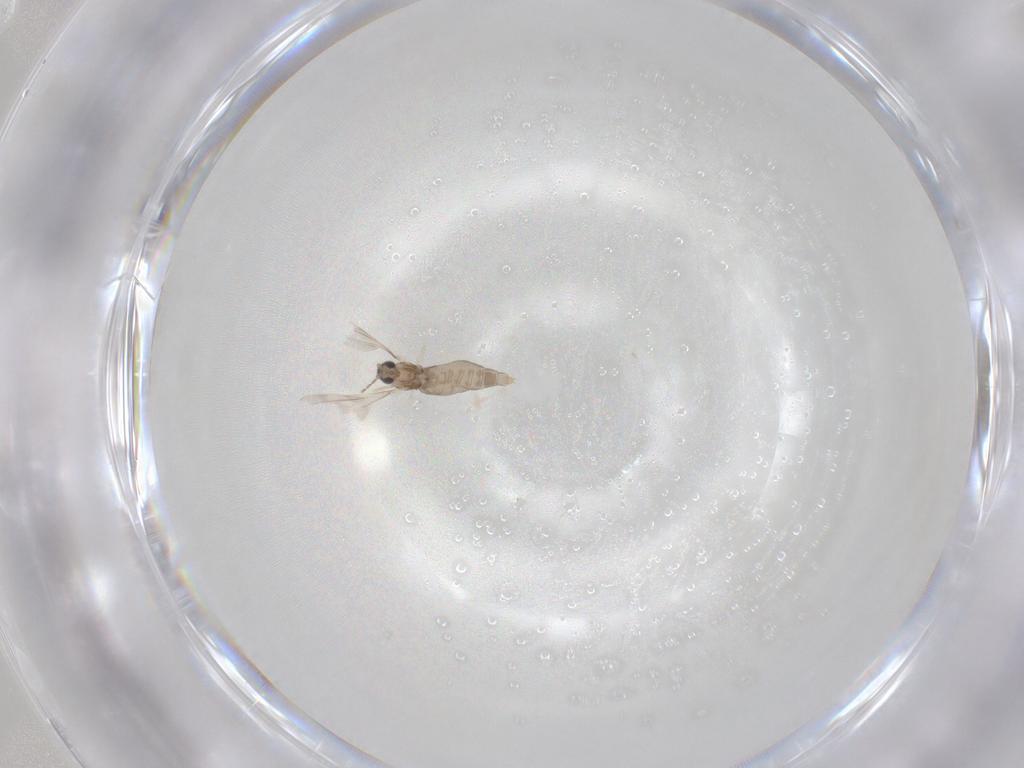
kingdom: Animalia
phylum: Arthropoda
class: Insecta
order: Diptera
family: Cecidomyiidae
